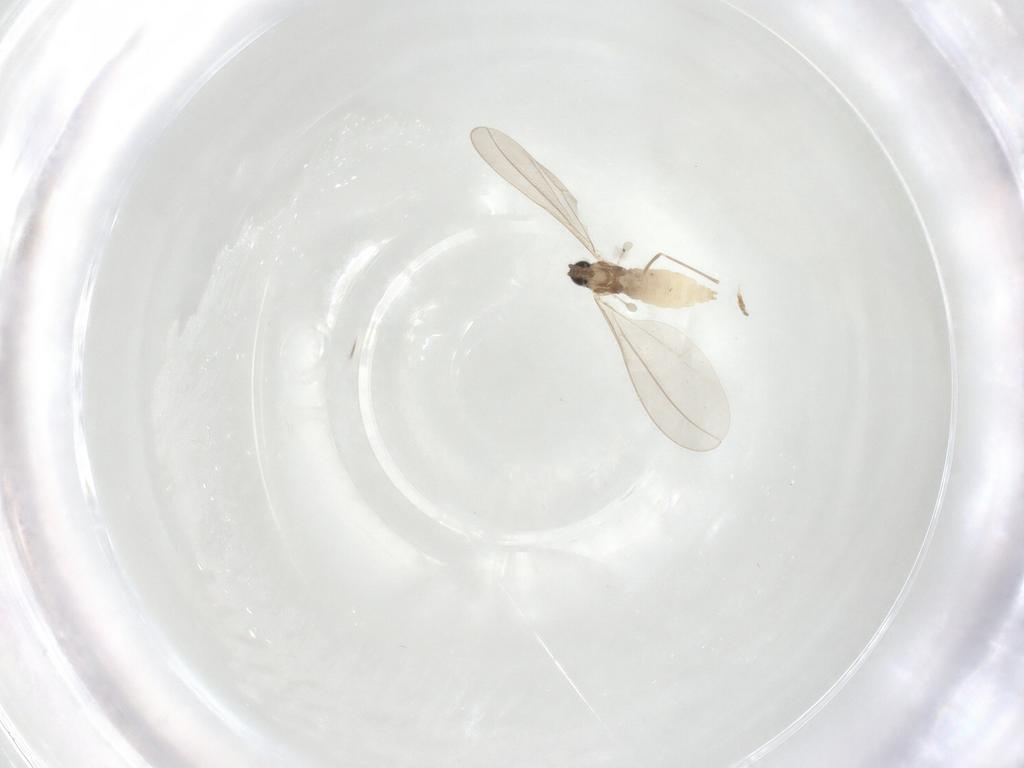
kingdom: Animalia
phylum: Arthropoda
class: Insecta
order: Diptera
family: Cecidomyiidae
